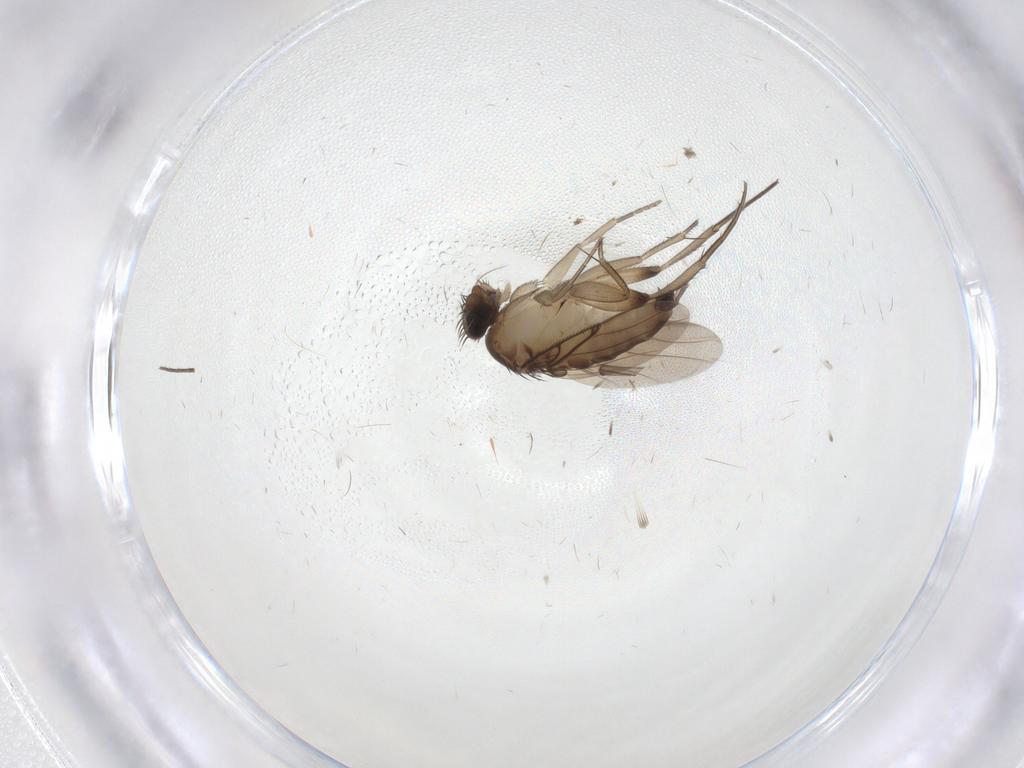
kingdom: Animalia
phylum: Arthropoda
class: Insecta
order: Diptera
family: Phoridae
